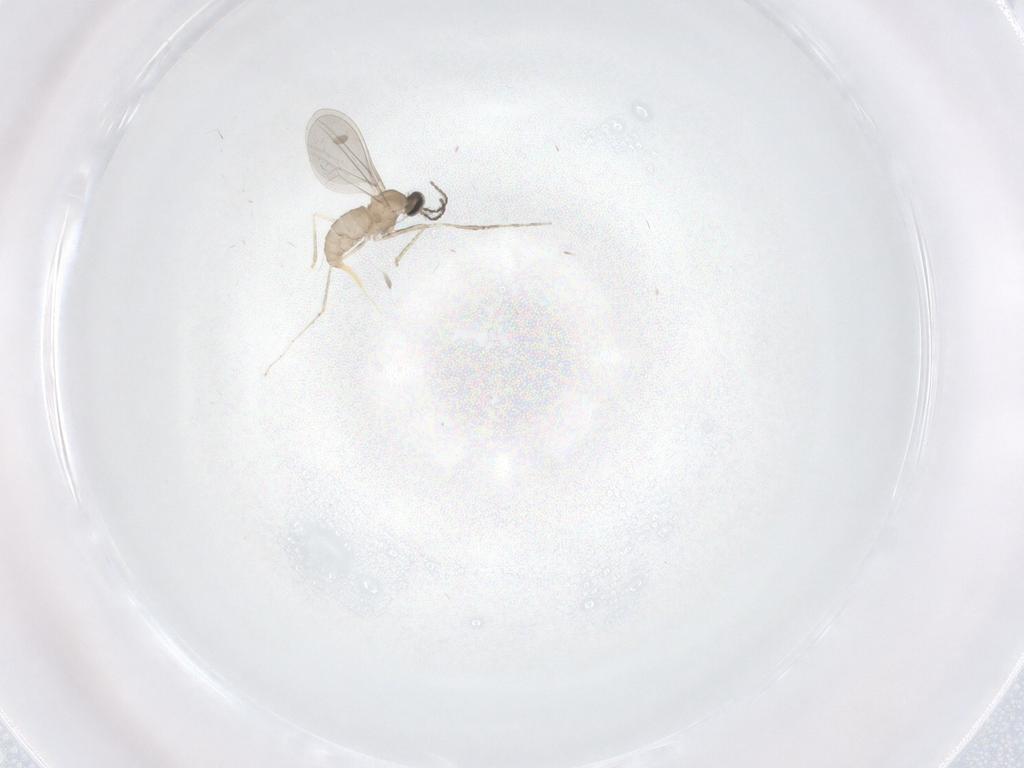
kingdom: Animalia
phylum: Arthropoda
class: Insecta
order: Diptera
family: Cecidomyiidae
